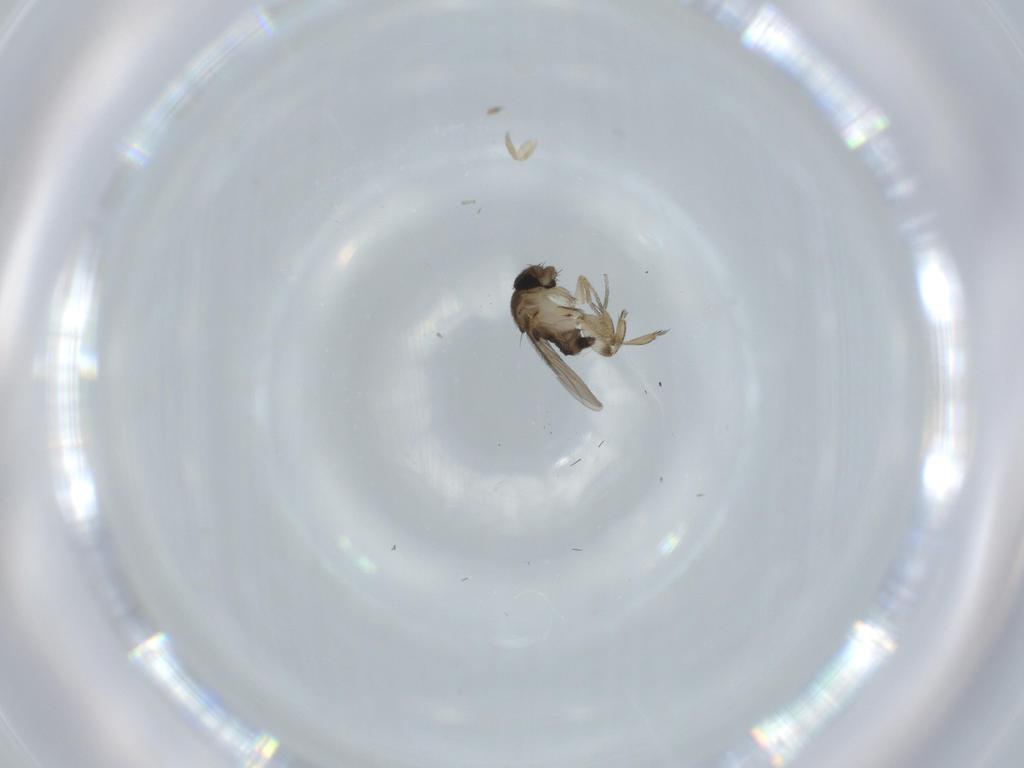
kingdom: Animalia
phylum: Arthropoda
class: Insecta
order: Diptera
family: Phoridae
